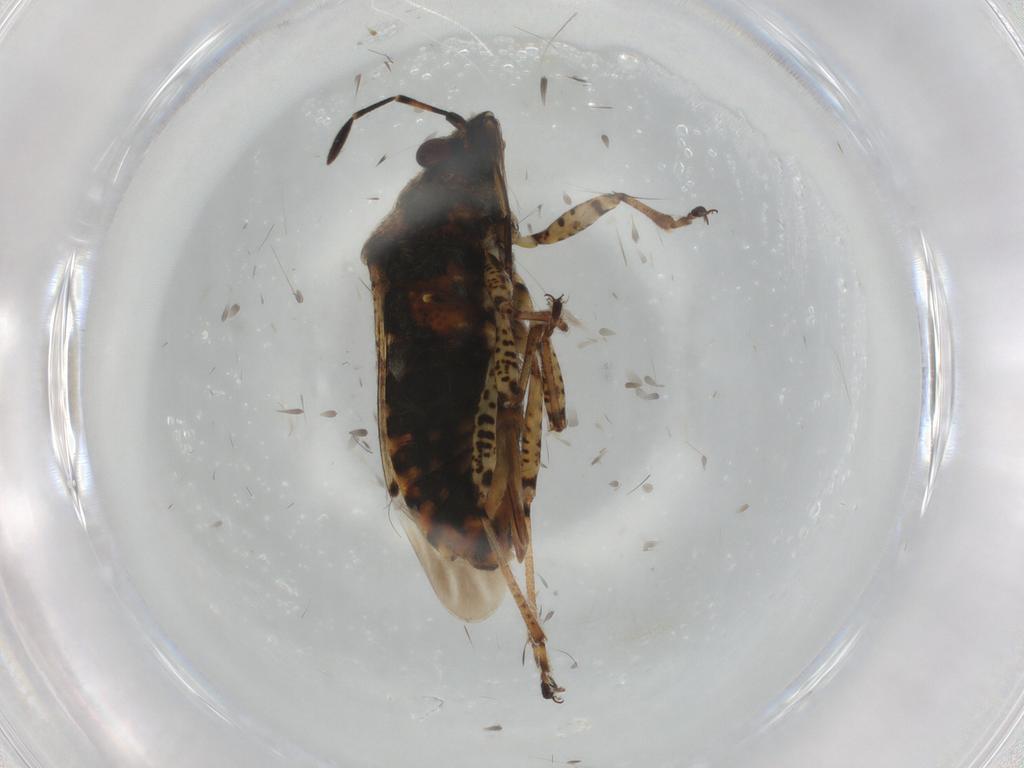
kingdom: Animalia
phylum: Arthropoda
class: Insecta
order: Hemiptera
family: Lygaeidae
